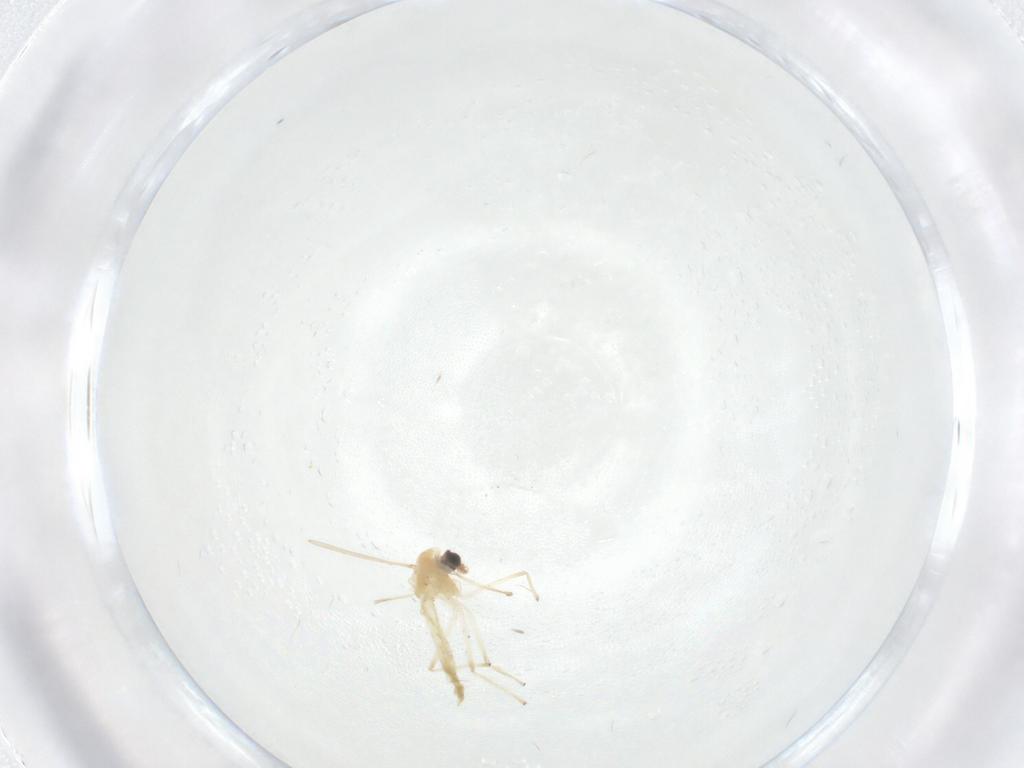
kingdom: Animalia
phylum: Arthropoda
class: Insecta
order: Diptera
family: Chironomidae
